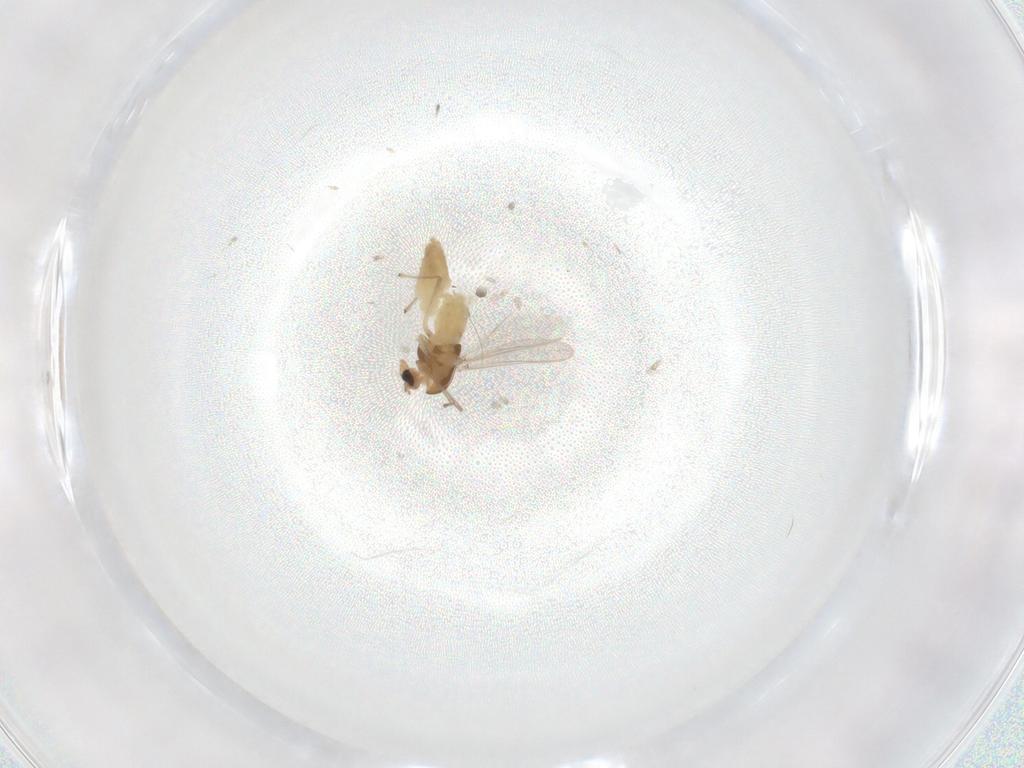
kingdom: Animalia
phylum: Arthropoda
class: Insecta
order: Diptera
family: Chironomidae
